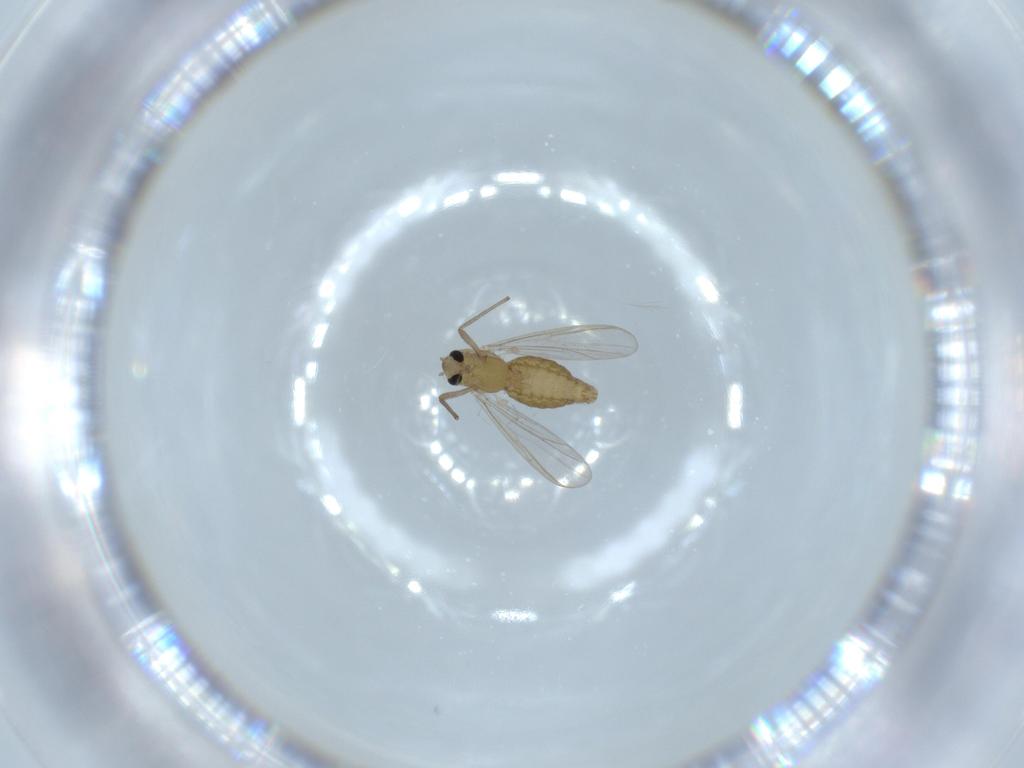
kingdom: Animalia
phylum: Arthropoda
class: Insecta
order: Diptera
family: Chironomidae
